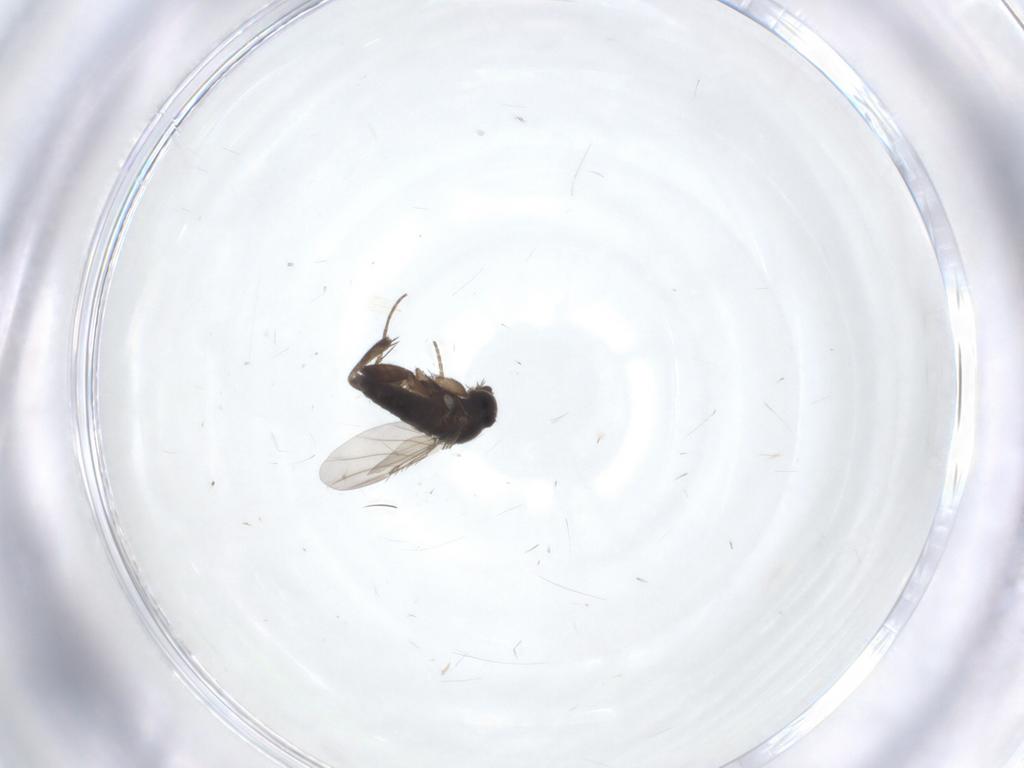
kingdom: Animalia
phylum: Arthropoda
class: Insecta
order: Diptera
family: Phoridae
